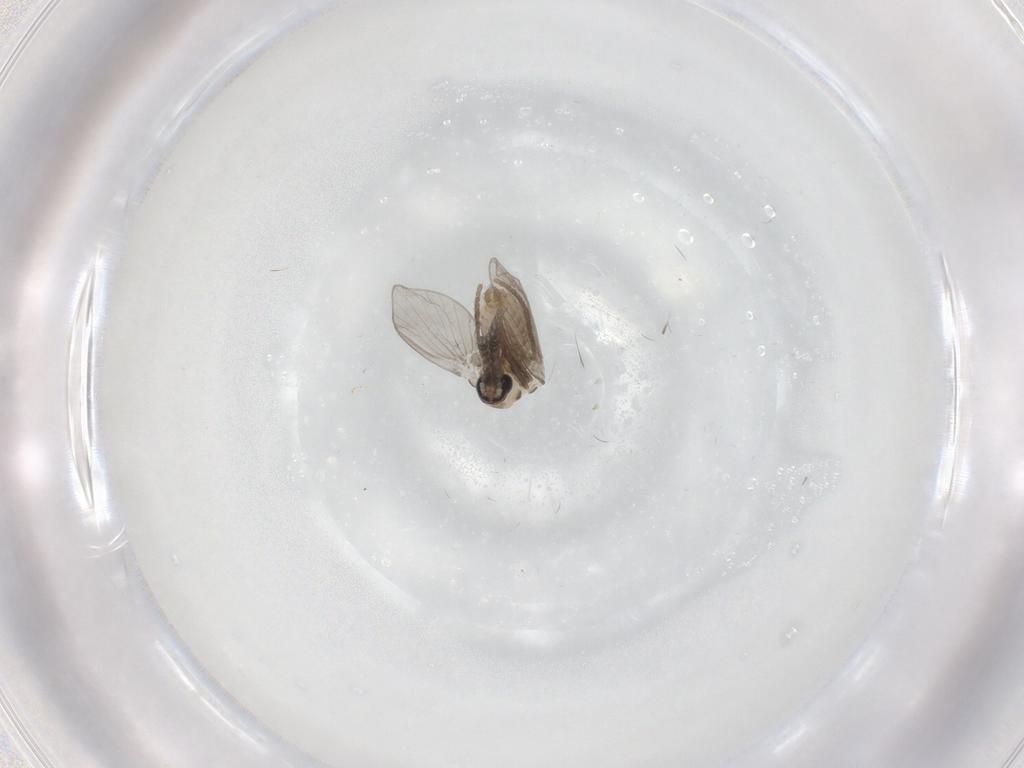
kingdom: Animalia
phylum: Arthropoda
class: Insecta
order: Diptera
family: Psychodidae
